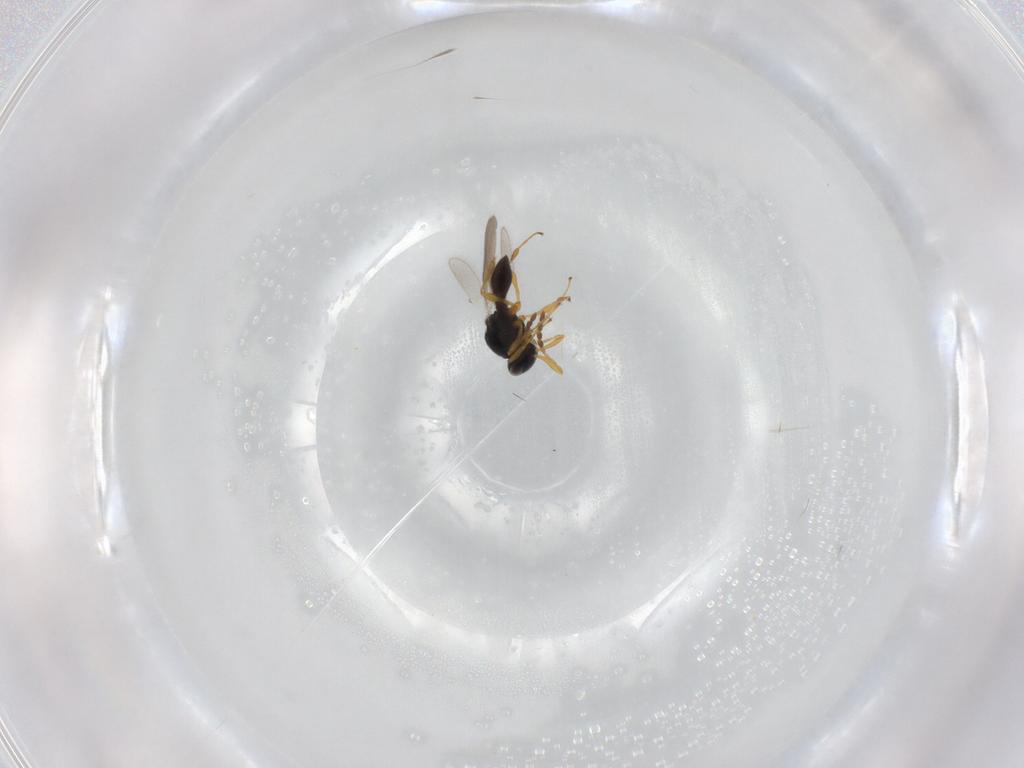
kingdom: Animalia
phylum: Arthropoda
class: Insecta
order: Hymenoptera
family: Platygastridae
